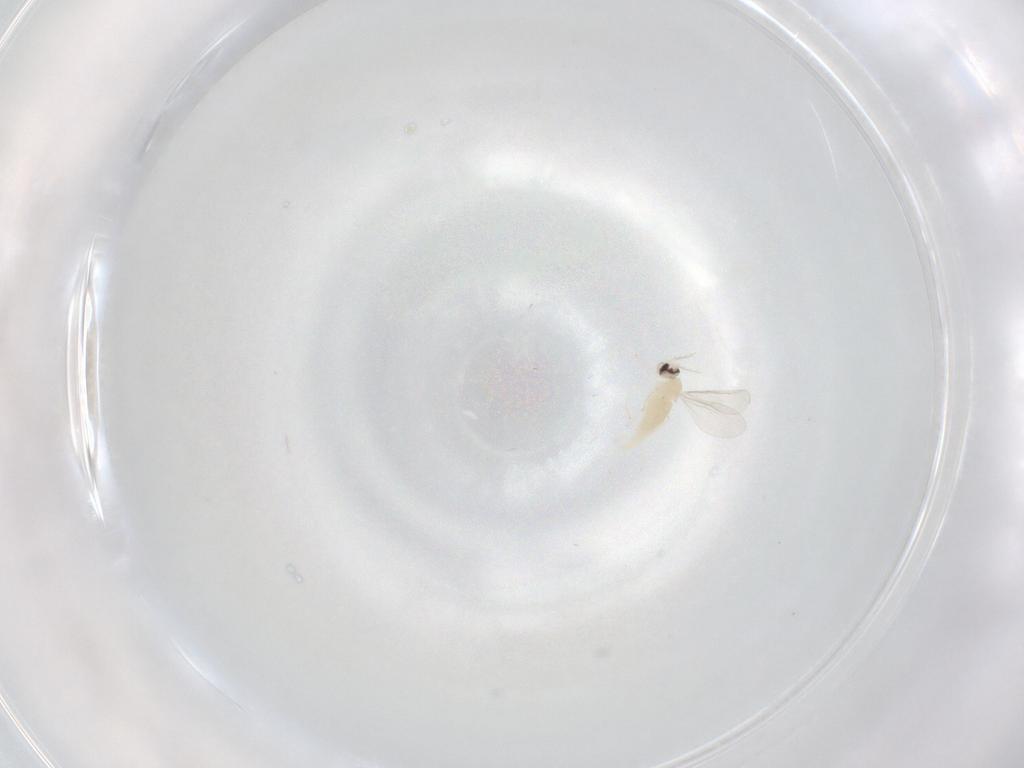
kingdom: Animalia
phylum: Arthropoda
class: Insecta
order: Diptera
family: Cecidomyiidae
